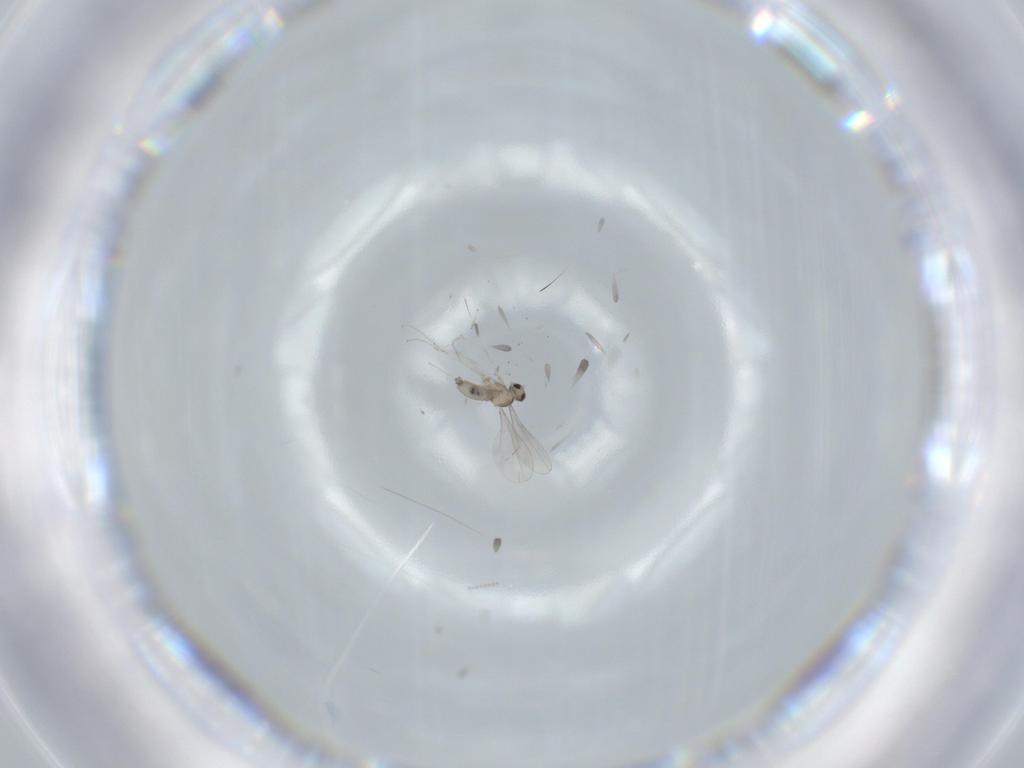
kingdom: Animalia
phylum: Arthropoda
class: Insecta
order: Diptera
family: Cecidomyiidae
